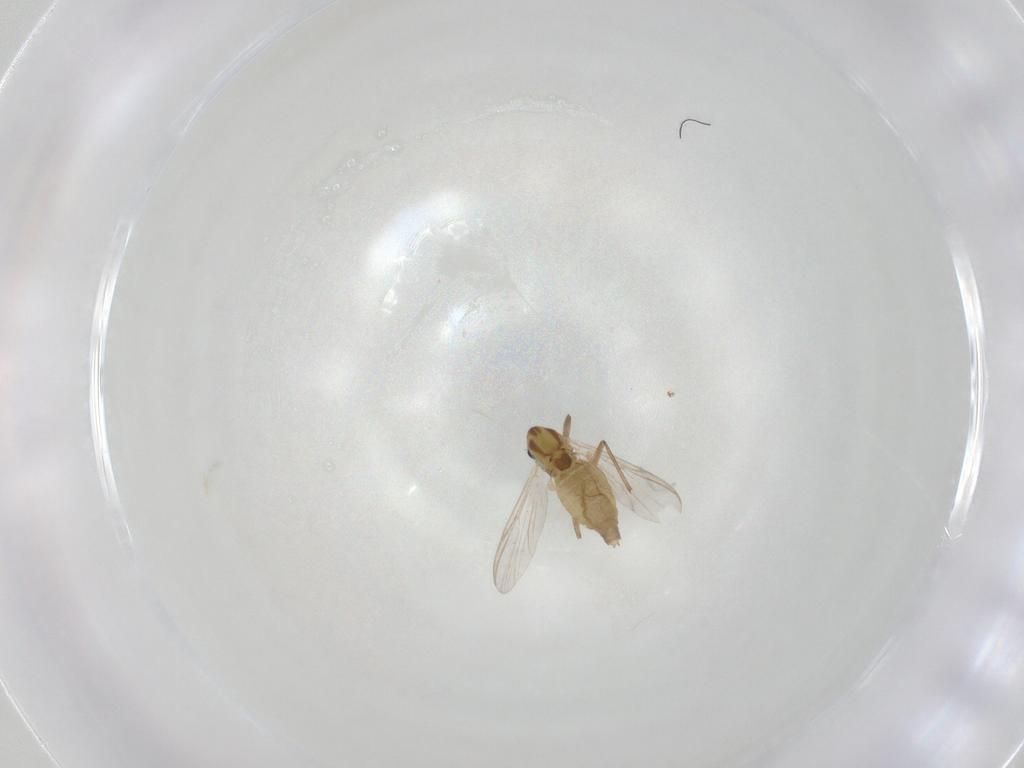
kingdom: Animalia
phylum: Arthropoda
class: Insecta
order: Diptera
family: Chironomidae
